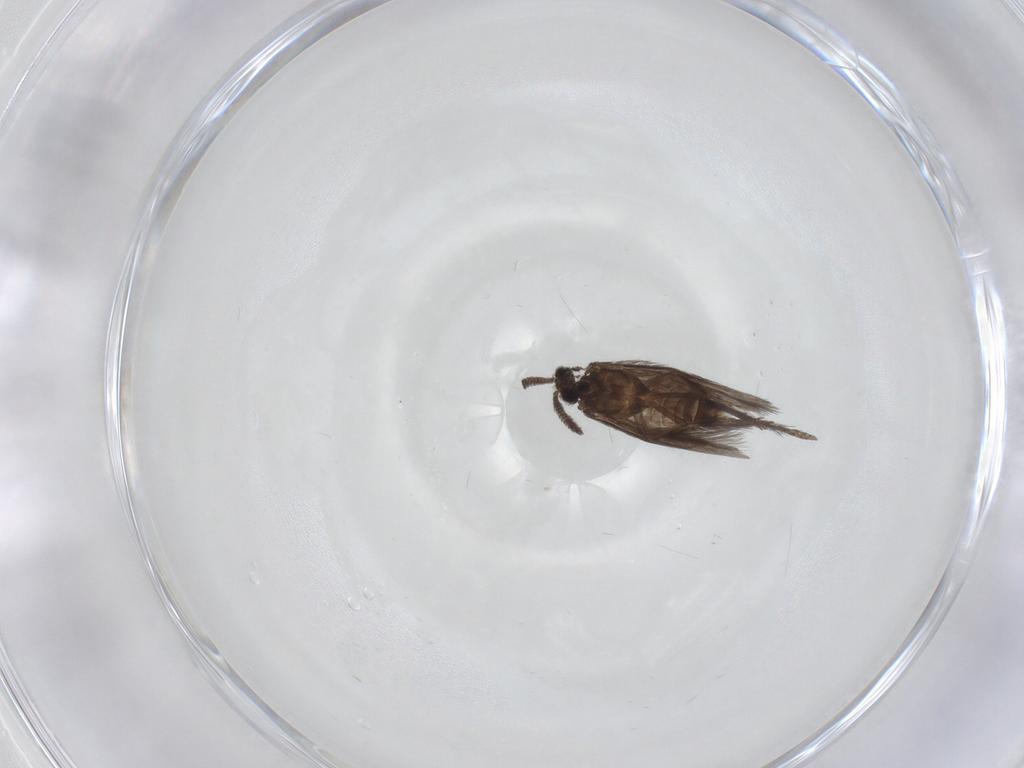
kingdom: Animalia
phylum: Arthropoda
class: Insecta
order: Trichoptera
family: Hydroptilidae
